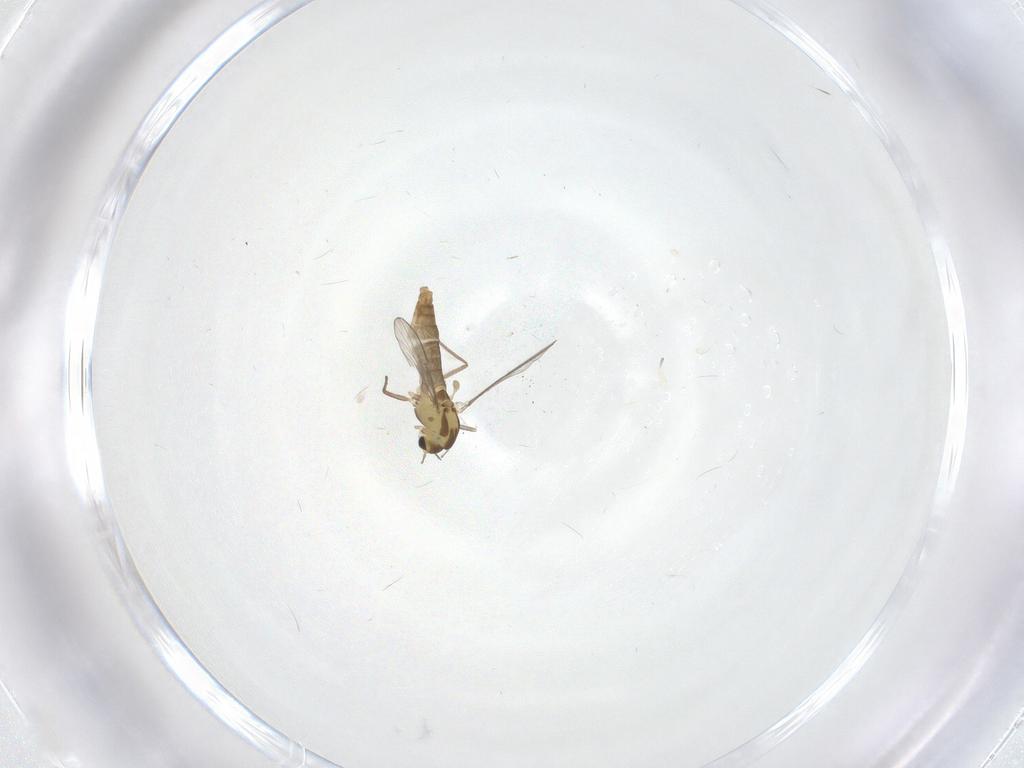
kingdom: Animalia
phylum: Arthropoda
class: Insecta
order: Diptera
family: Chironomidae
